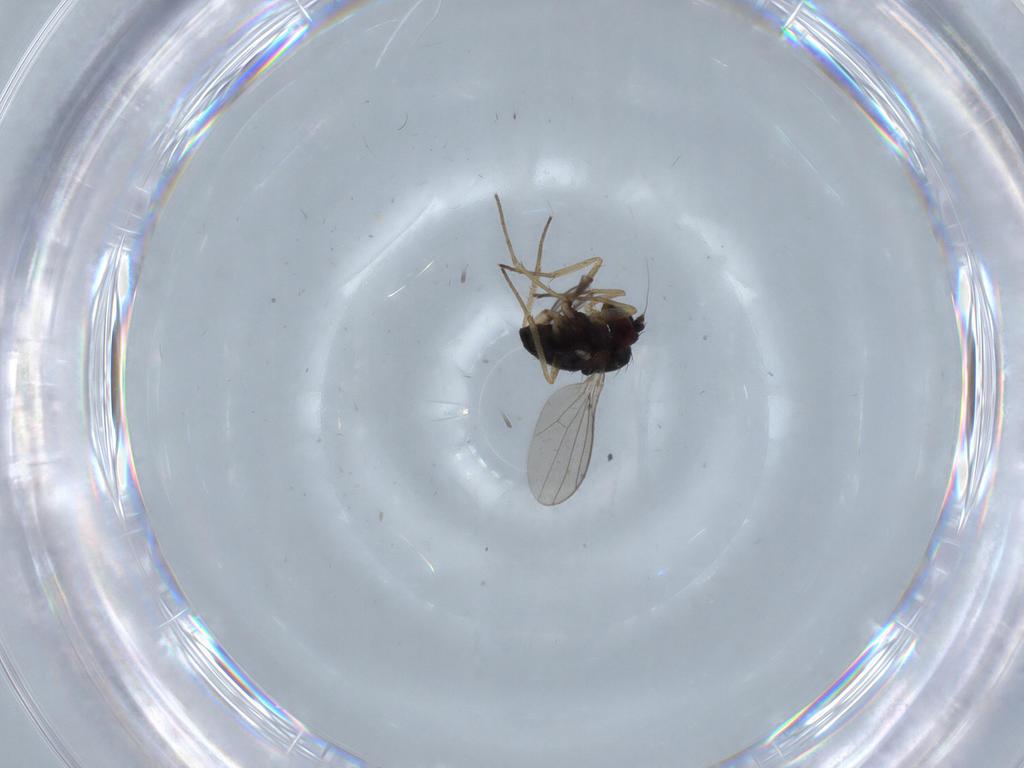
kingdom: Animalia
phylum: Arthropoda
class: Insecta
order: Diptera
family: Dolichopodidae
